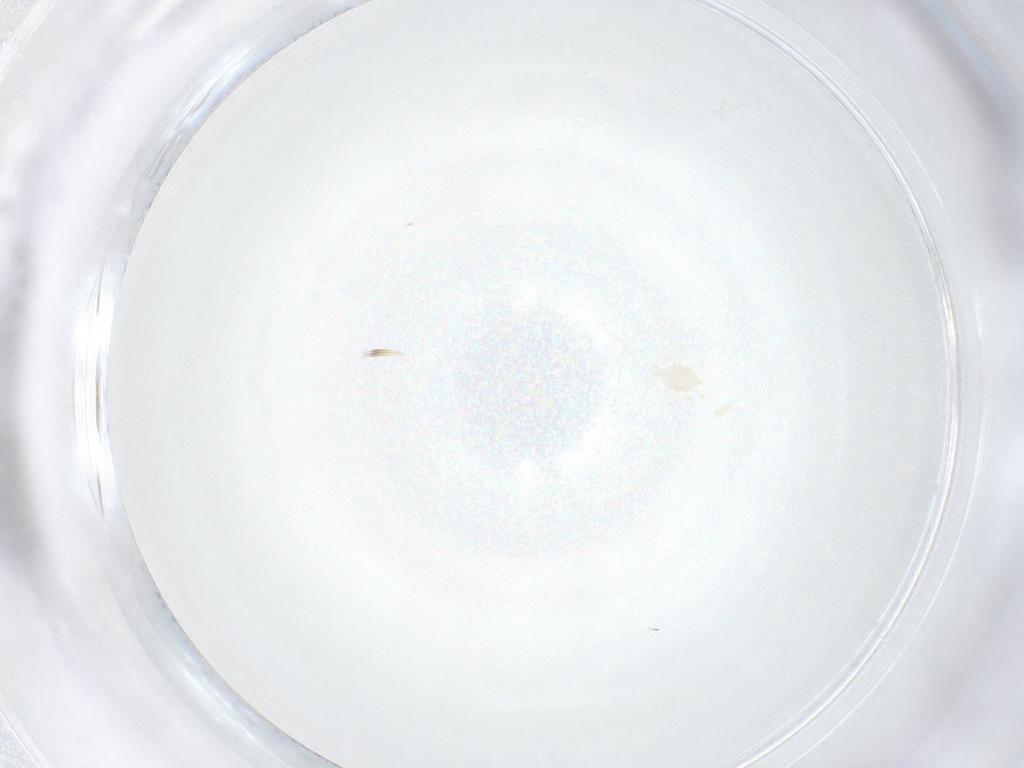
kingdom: Animalia
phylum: Arthropoda
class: Arachnida
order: Mesostigmata
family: Melicharidae
